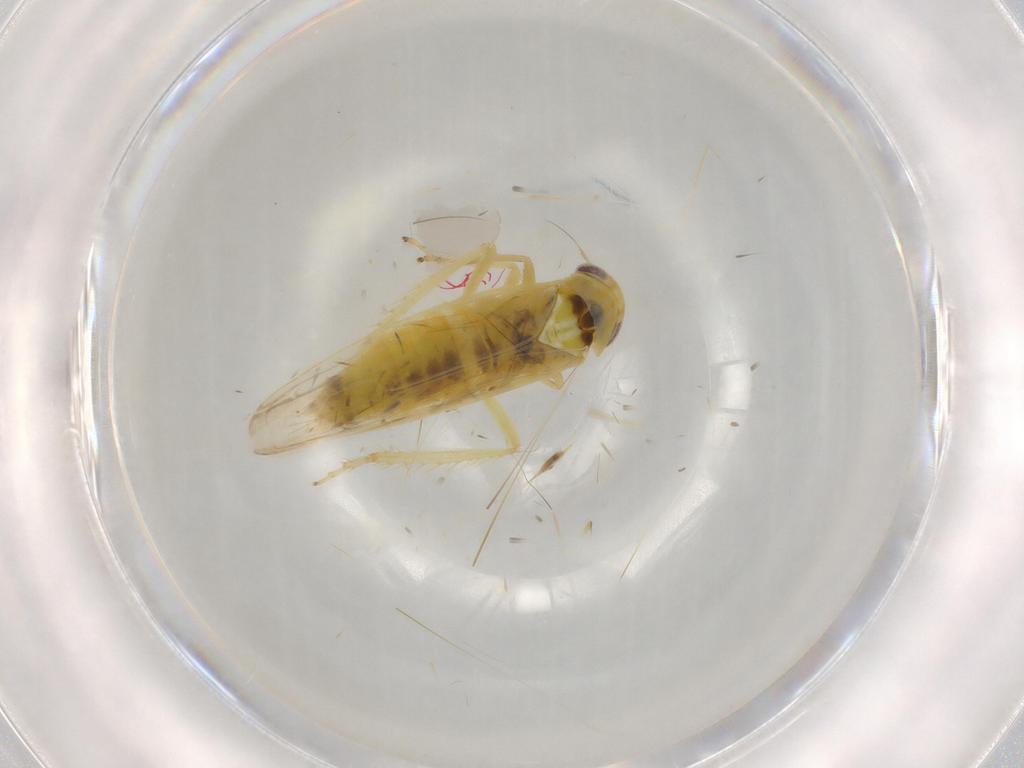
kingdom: Animalia
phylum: Arthropoda
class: Insecta
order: Hemiptera
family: Cicadellidae
